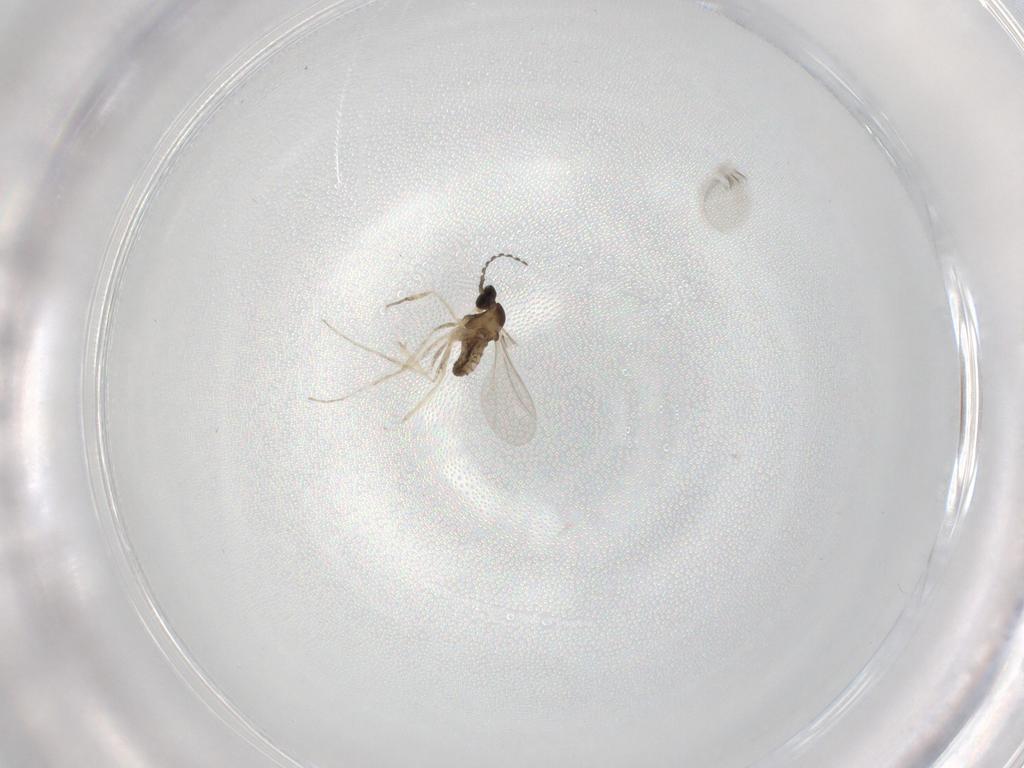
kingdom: Animalia
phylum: Arthropoda
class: Insecta
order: Diptera
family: Cecidomyiidae
